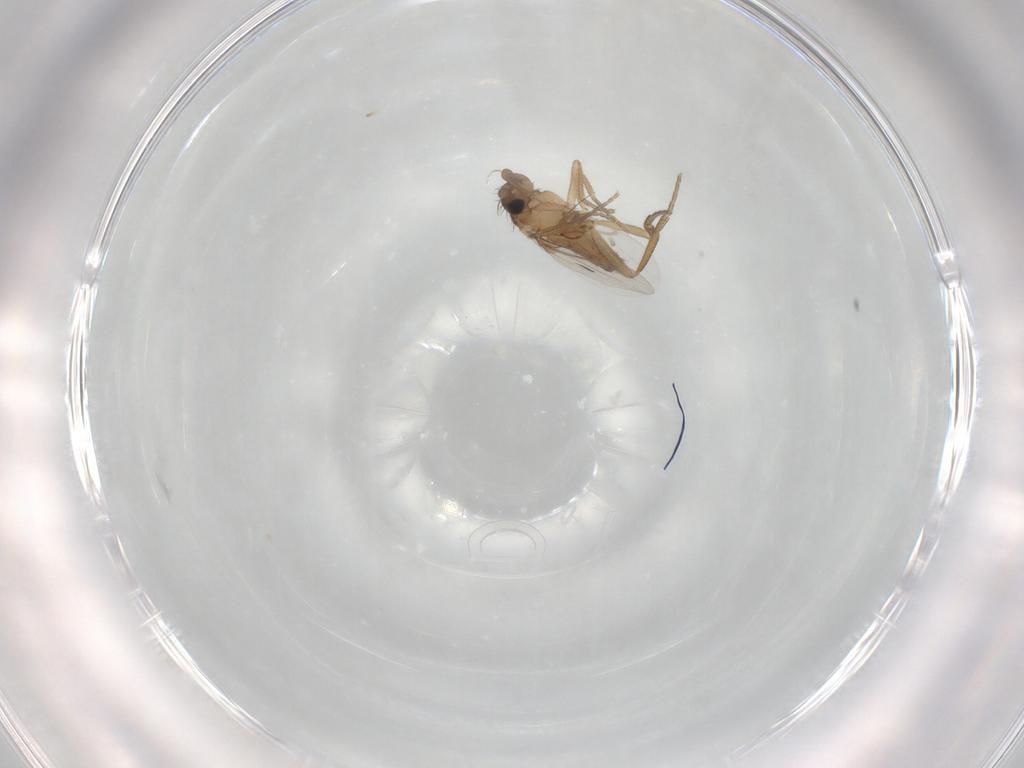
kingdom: Animalia
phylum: Arthropoda
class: Insecta
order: Diptera
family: Phoridae
